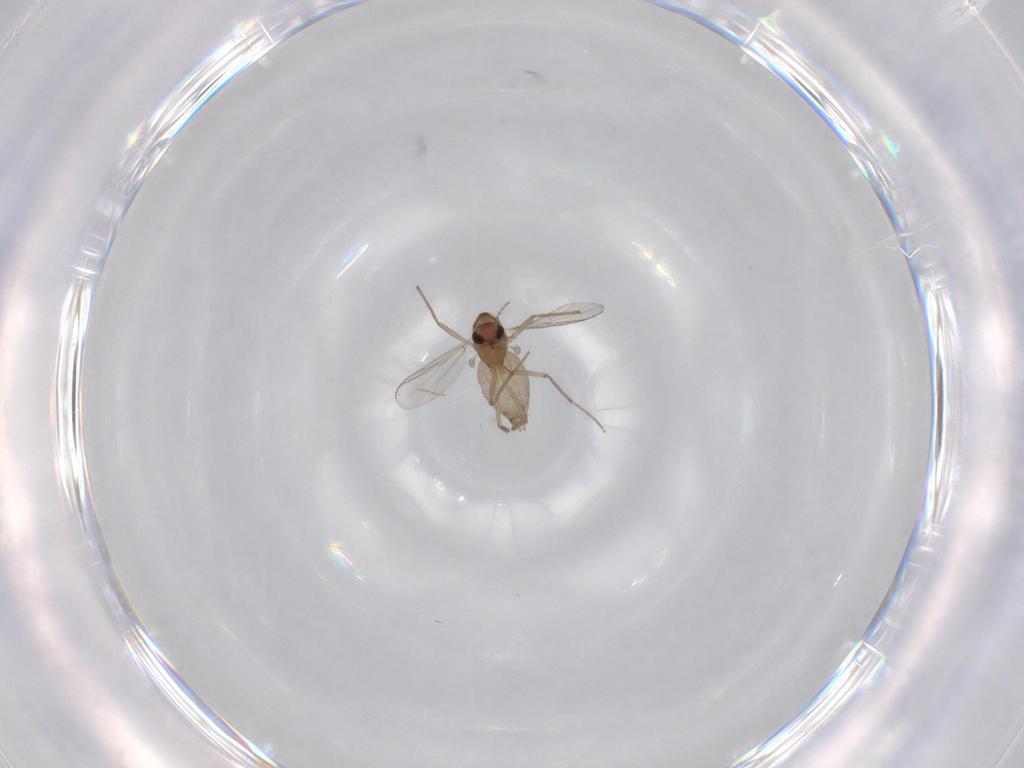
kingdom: Animalia
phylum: Arthropoda
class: Insecta
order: Diptera
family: Chironomidae
